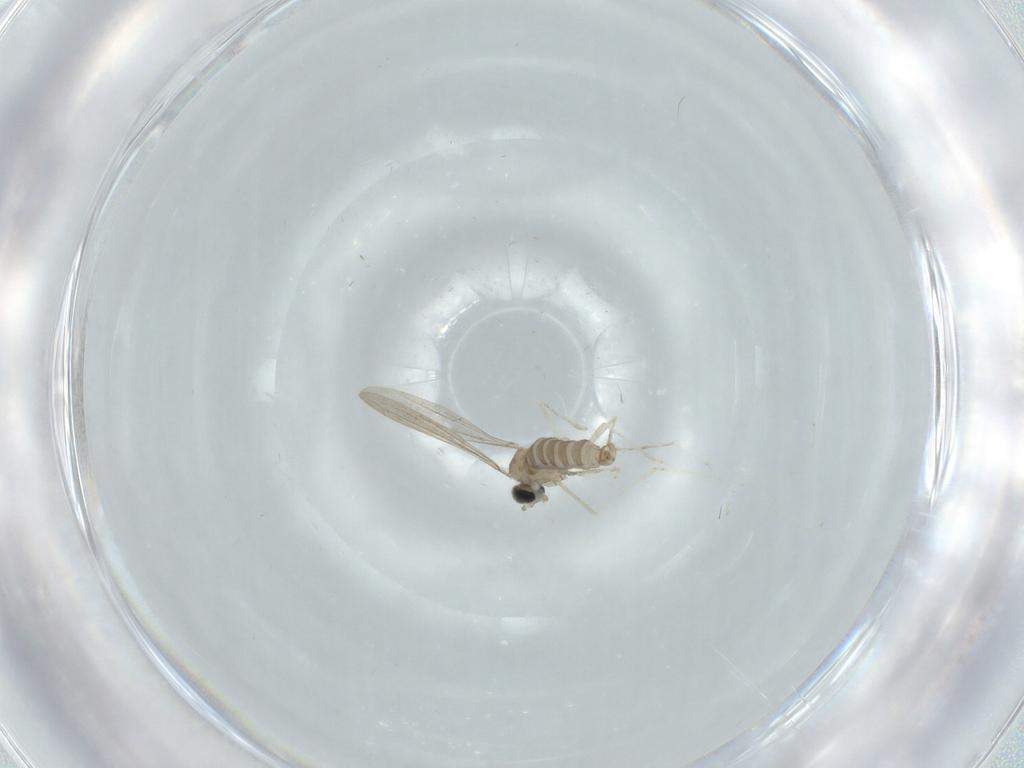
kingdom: Animalia
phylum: Arthropoda
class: Insecta
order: Diptera
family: Cecidomyiidae
